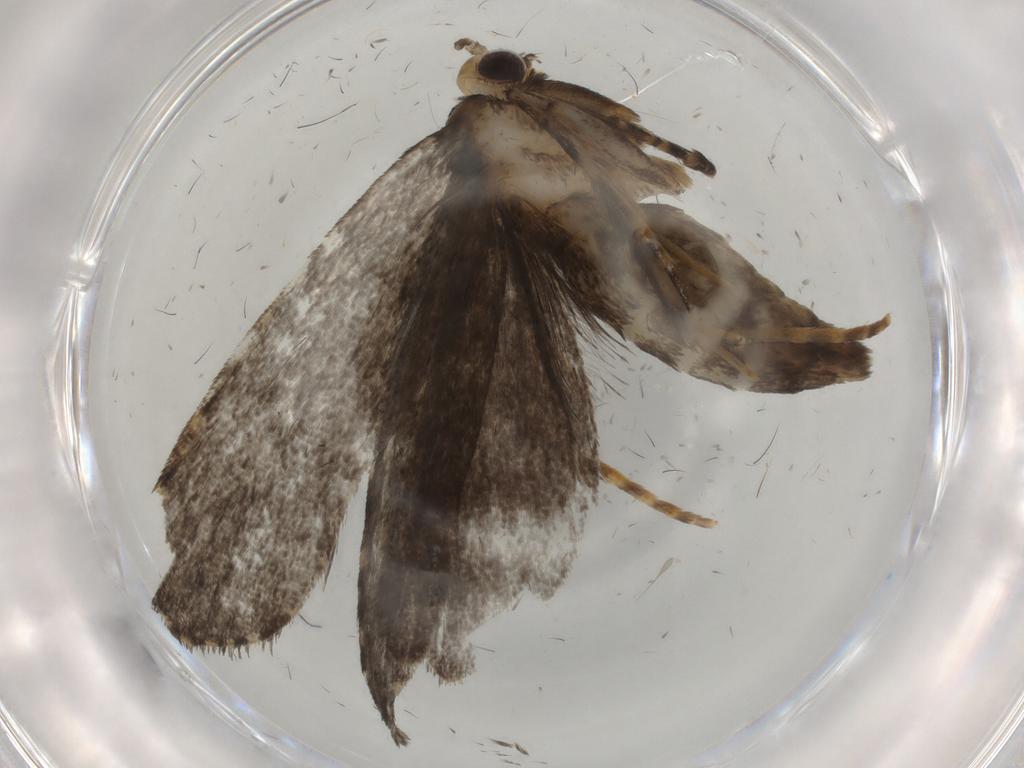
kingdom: Animalia
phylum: Arthropoda
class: Insecta
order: Lepidoptera
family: Tineidae
